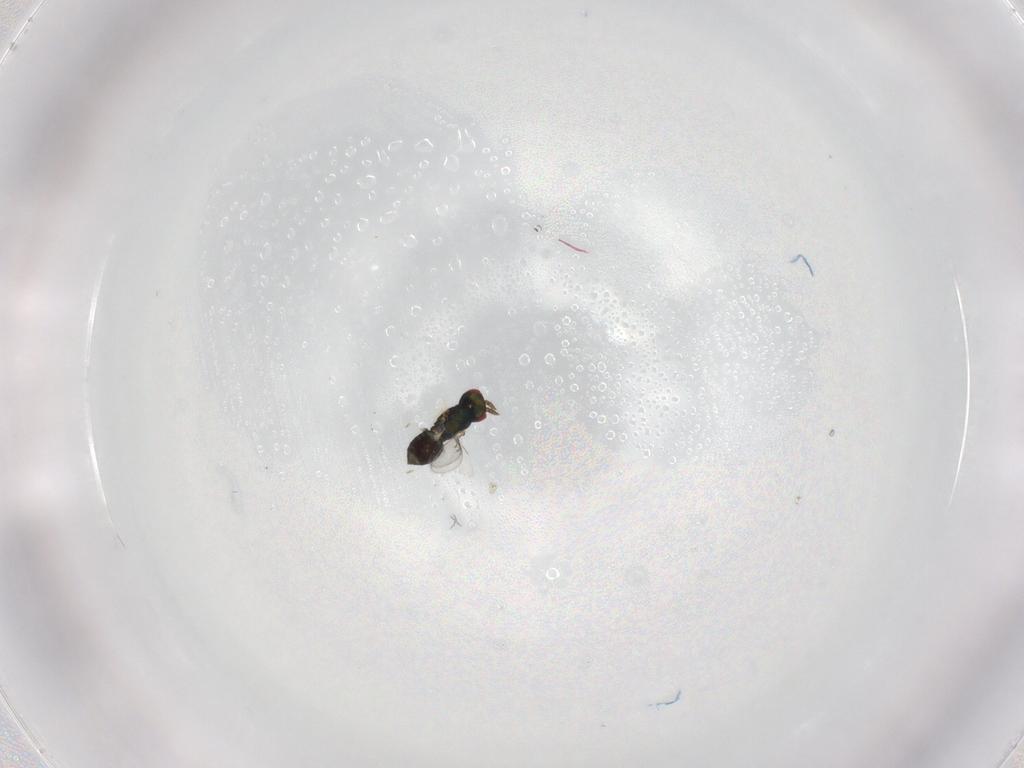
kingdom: Animalia
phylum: Arthropoda
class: Insecta
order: Hymenoptera
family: Eulophidae
